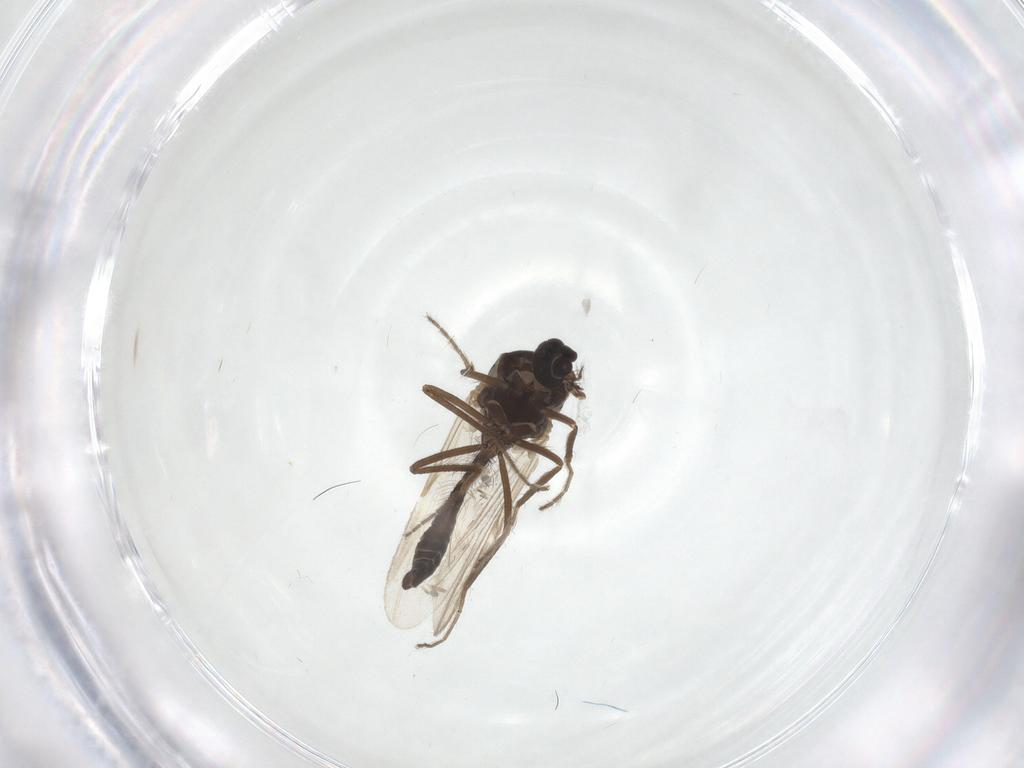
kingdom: Animalia
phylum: Arthropoda
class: Insecta
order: Diptera
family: Ceratopogonidae
